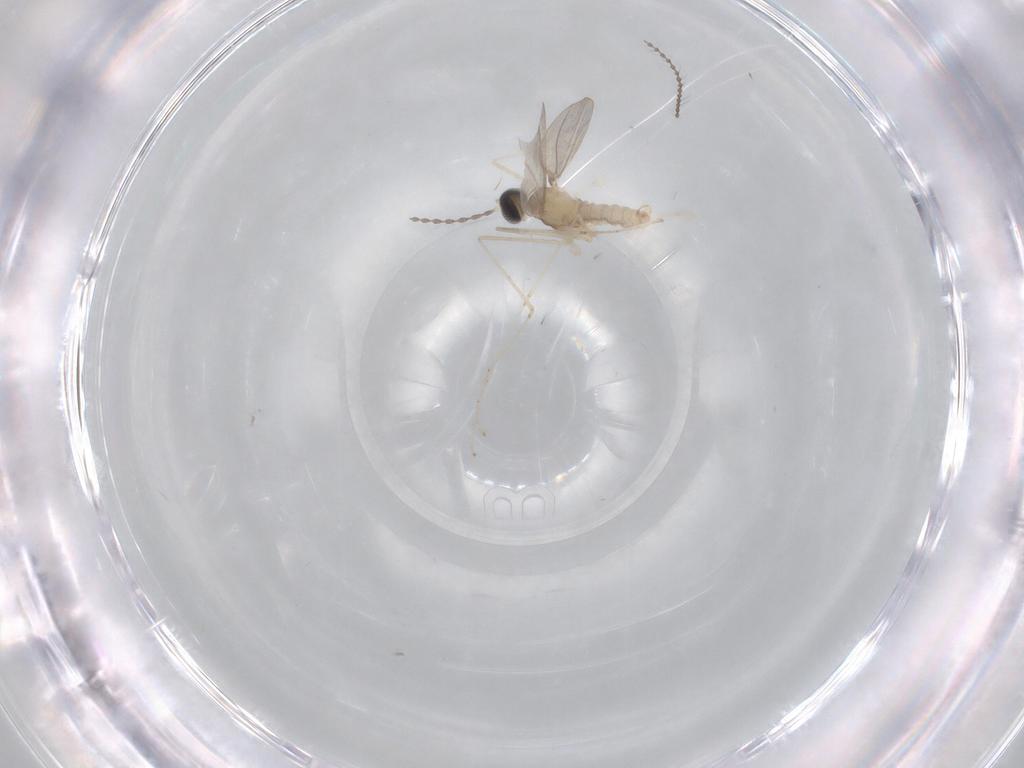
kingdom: Animalia
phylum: Arthropoda
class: Insecta
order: Diptera
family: Cecidomyiidae
